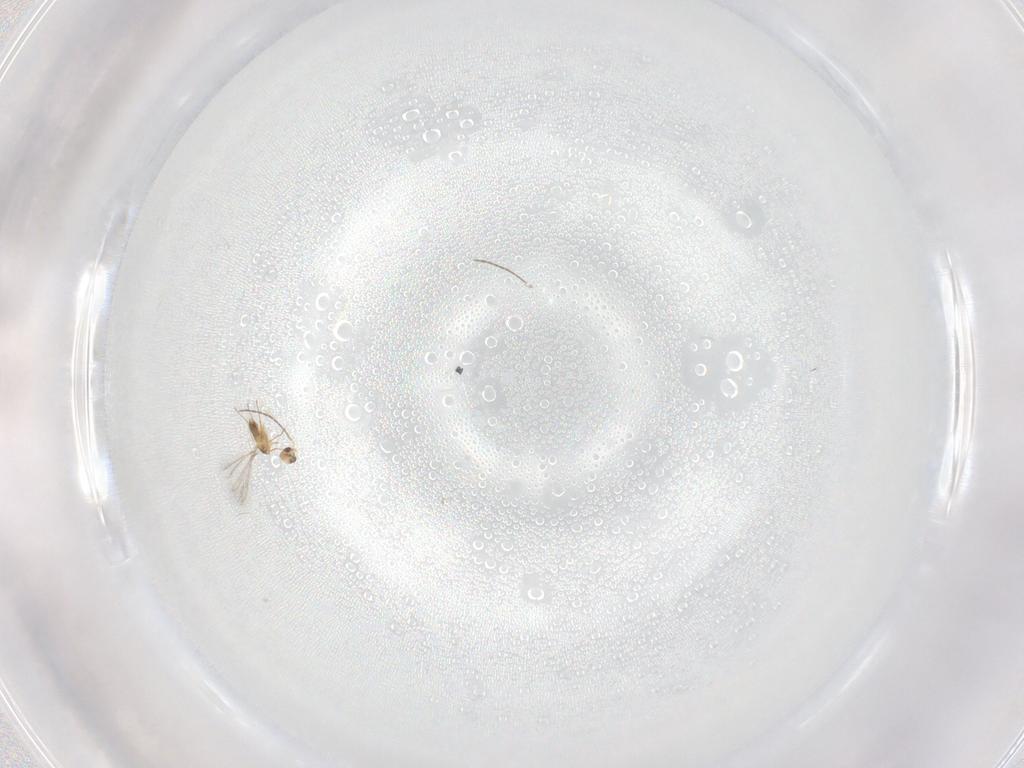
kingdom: Animalia
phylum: Arthropoda
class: Insecta
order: Hymenoptera
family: Mymaridae
